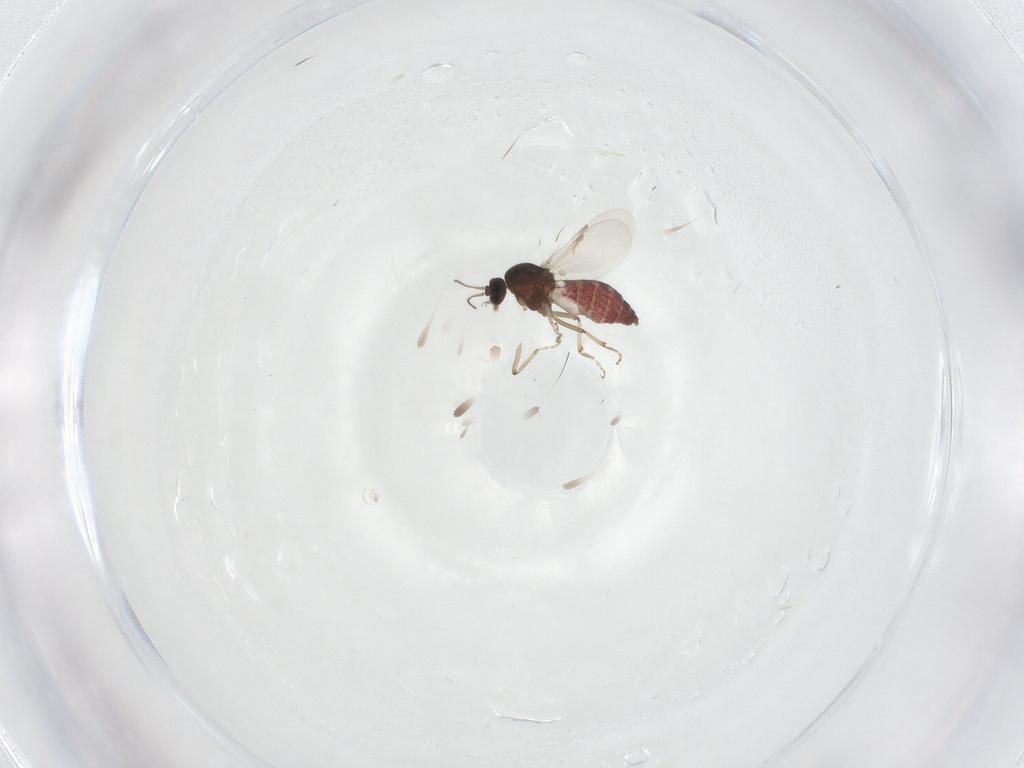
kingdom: Animalia
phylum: Arthropoda
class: Insecta
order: Diptera
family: Ceratopogonidae
